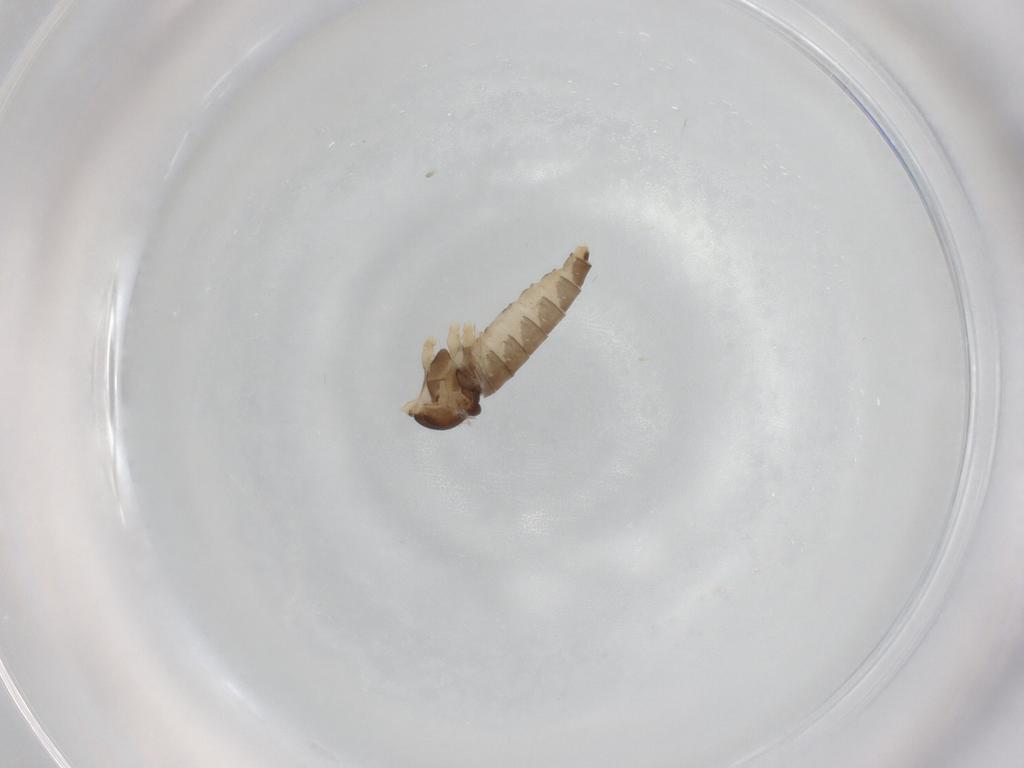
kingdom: Animalia
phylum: Arthropoda
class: Insecta
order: Diptera
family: Cecidomyiidae
